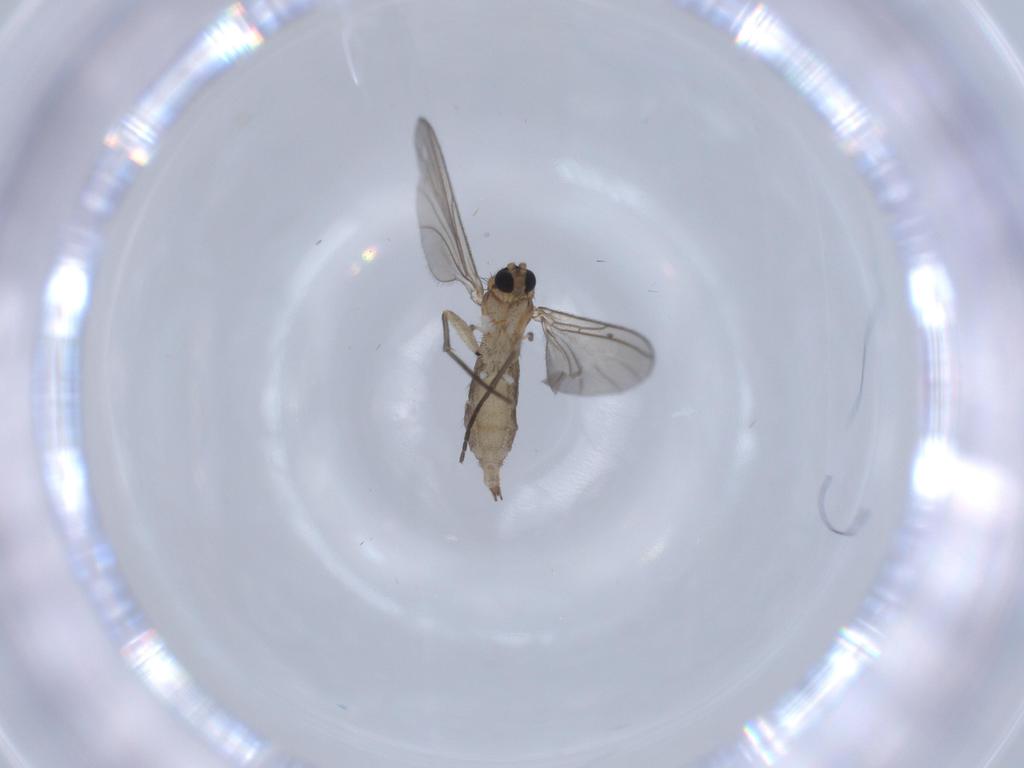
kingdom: Animalia
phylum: Arthropoda
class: Insecta
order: Diptera
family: Sciaridae
